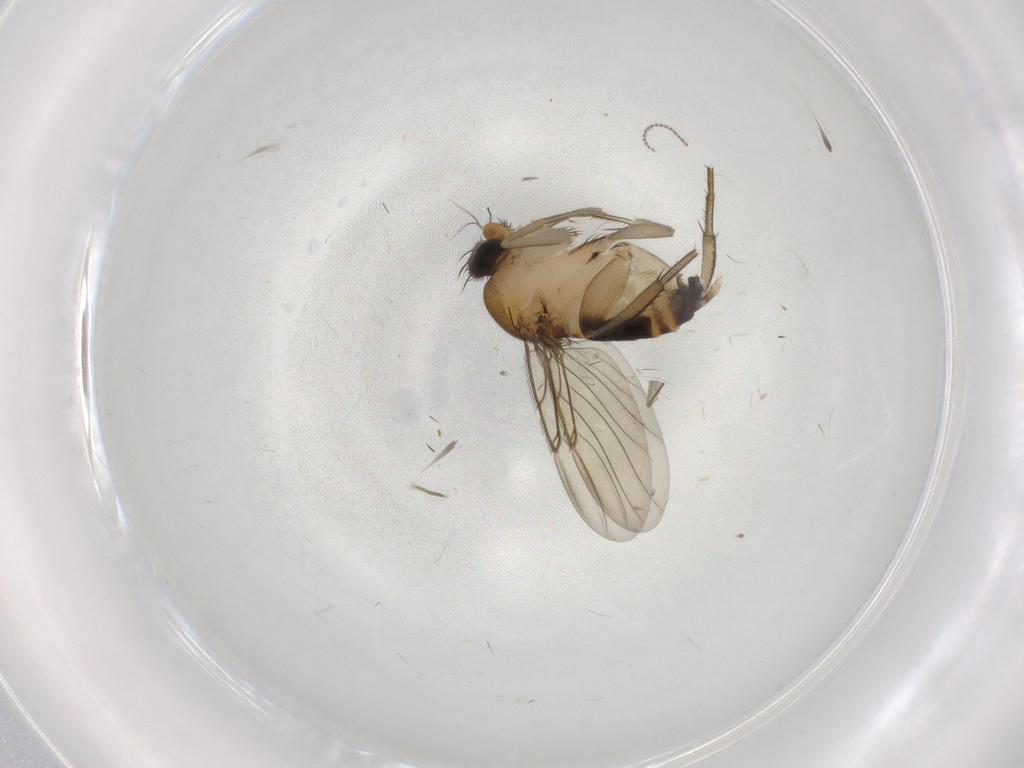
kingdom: Animalia
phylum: Arthropoda
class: Insecta
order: Diptera
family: Phoridae
